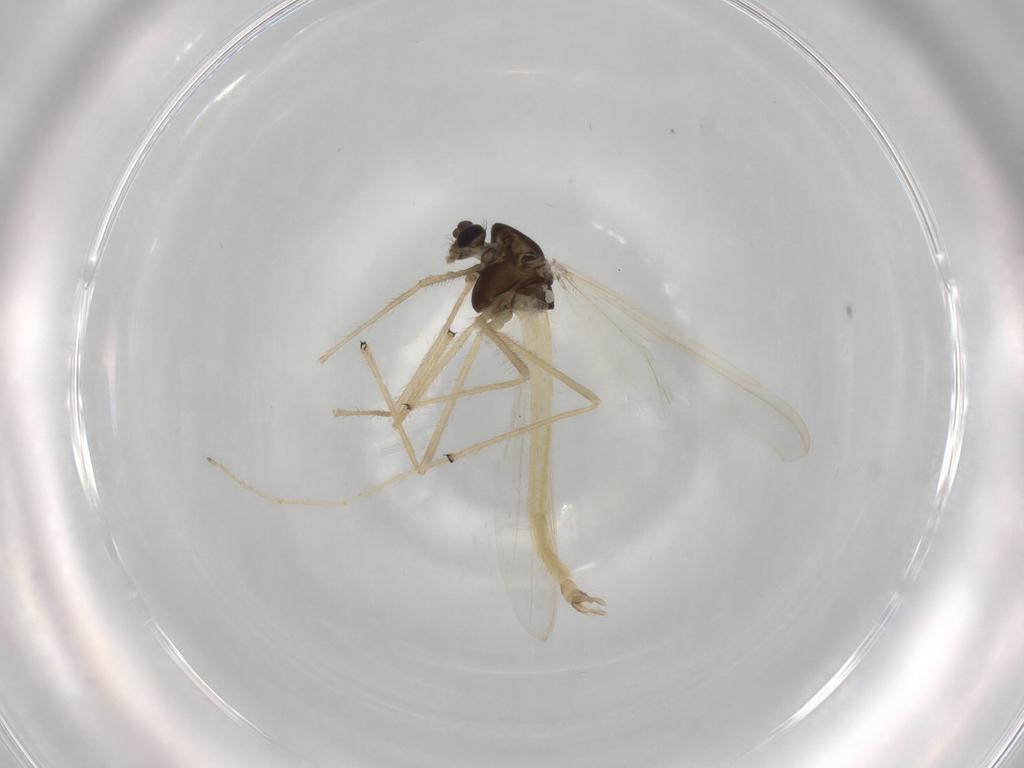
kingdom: Animalia
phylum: Arthropoda
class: Insecta
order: Diptera
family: Chironomidae
